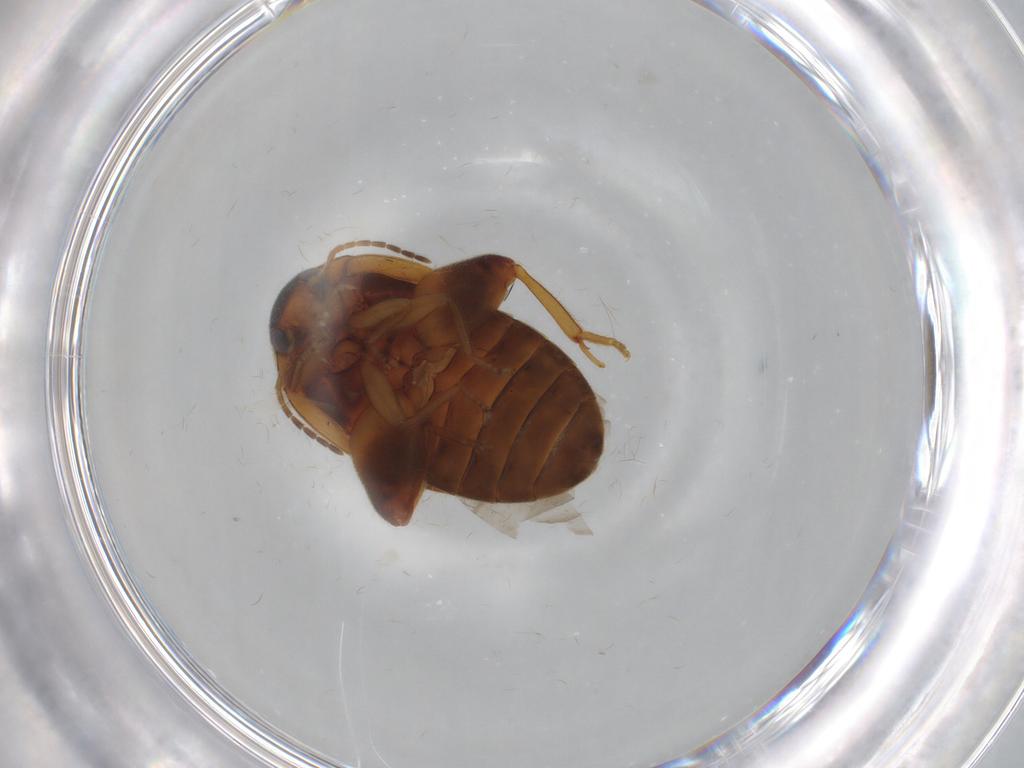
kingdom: Animalia
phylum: Arthropoda
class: Insecta
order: Coleoptera
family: Scirtidae
